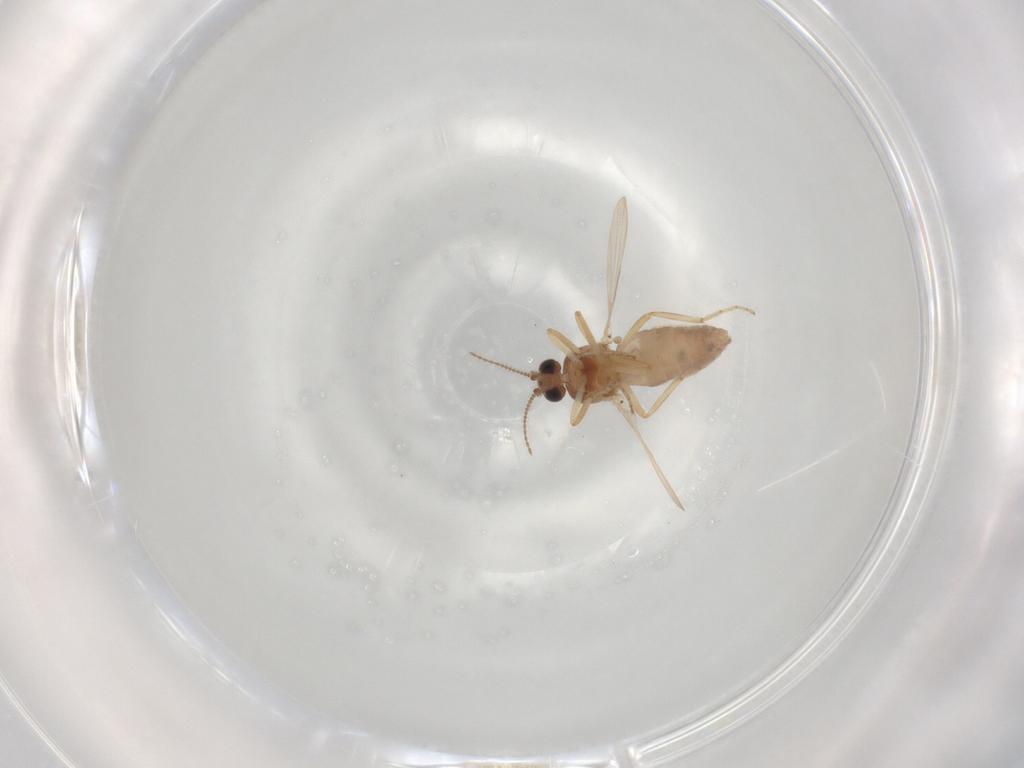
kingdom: Animalia
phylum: Arthropoda
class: Insecta
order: Diptera
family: Ceratopogonidae
